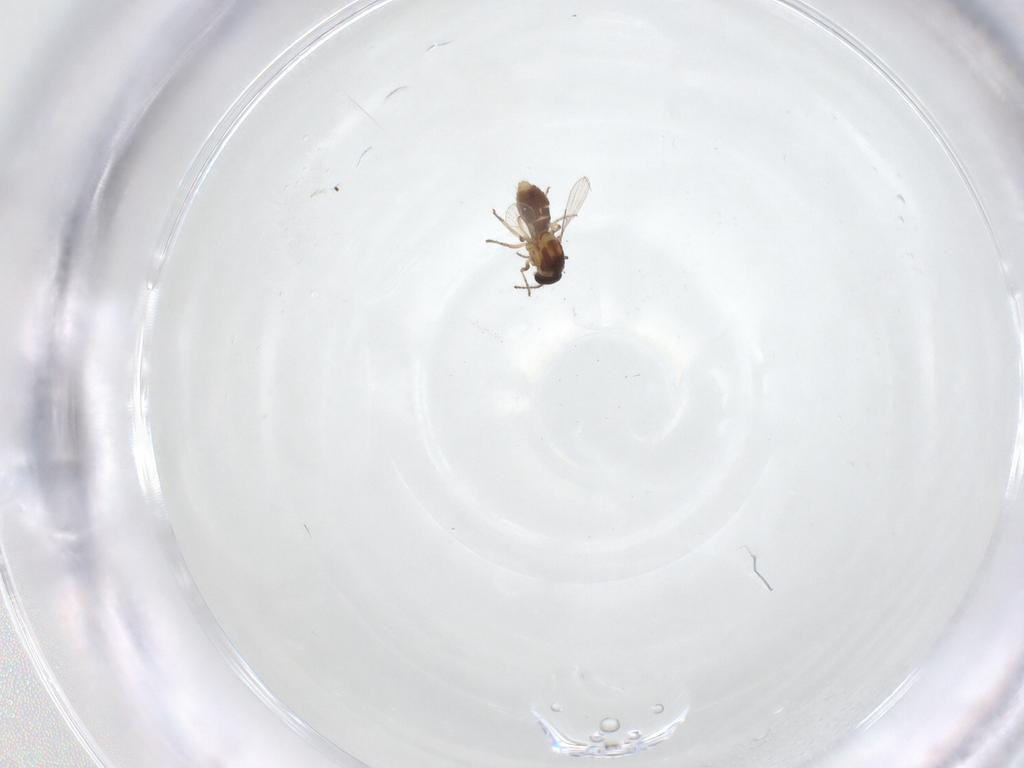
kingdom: Animalia
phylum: Arthropoda
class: Insecta
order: Diptera
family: Ceratopogonidae
